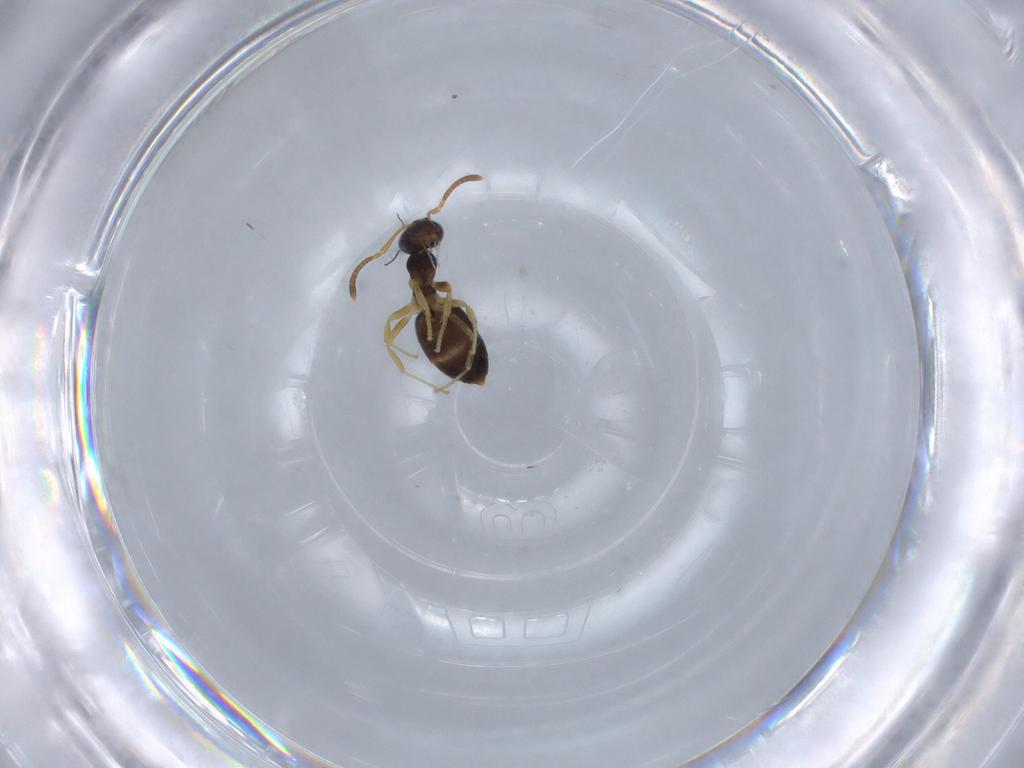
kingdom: Animalia
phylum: Arthropoda
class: Insecta
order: Hymenoptera
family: Formicidae
